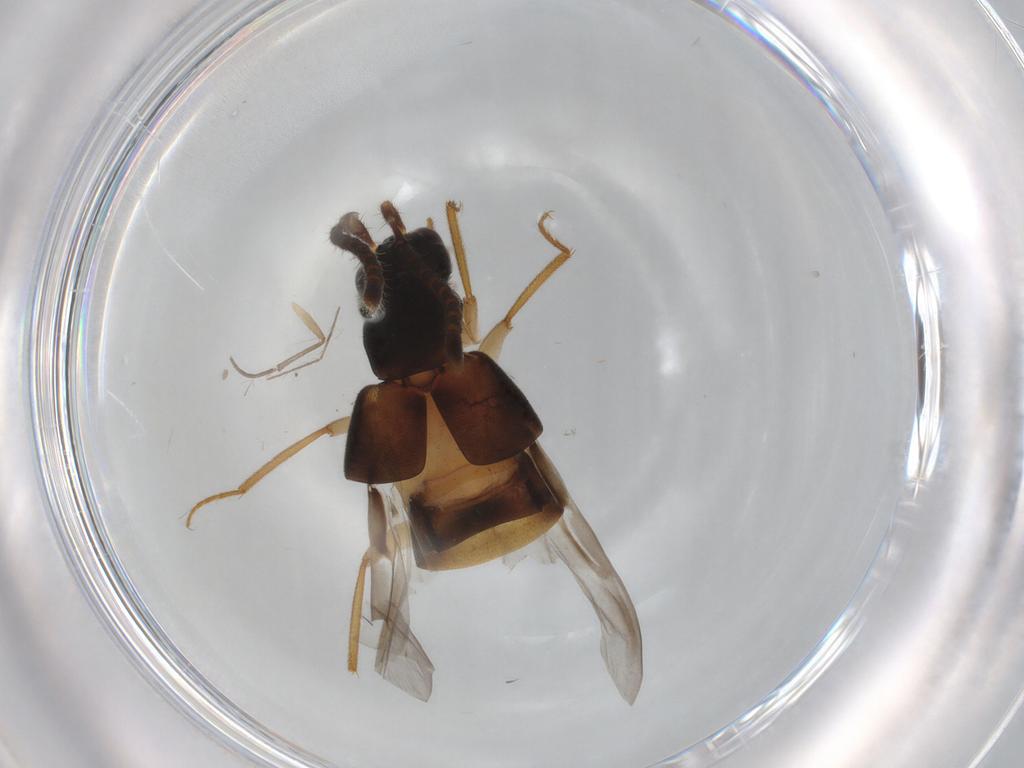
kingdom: Animalia
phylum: Arthropoda
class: Insecta
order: Coleoptera
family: Staphylinidae
